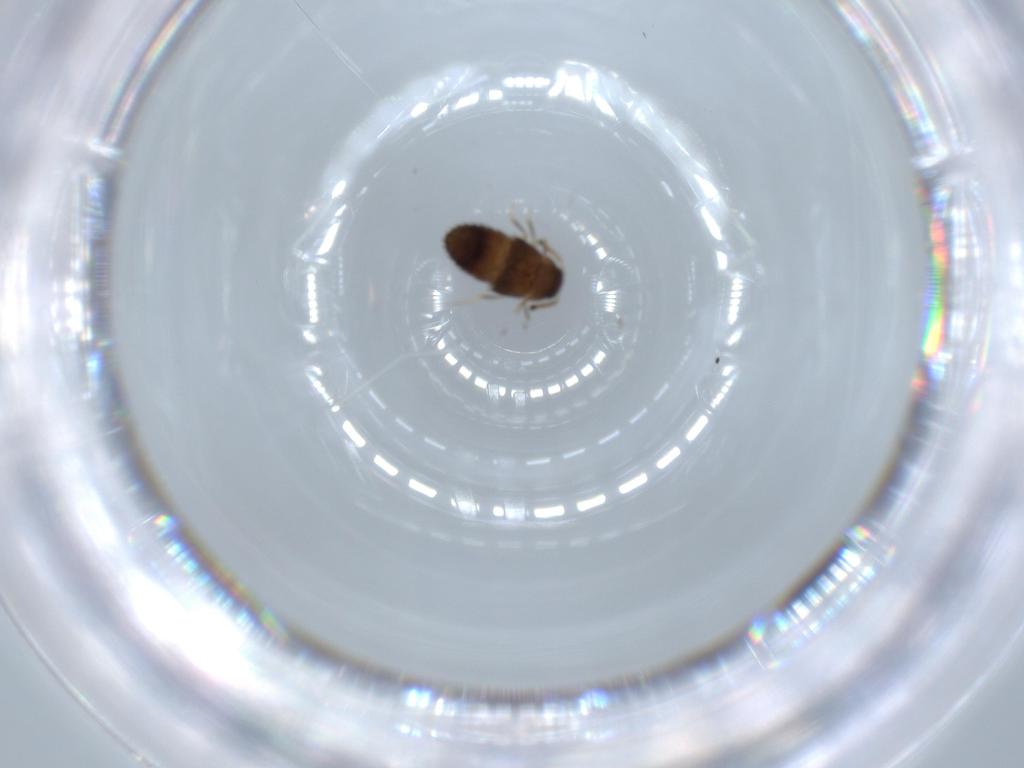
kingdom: Animalia
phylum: Arthropoda
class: Insecta
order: Coleoptera
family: Staphylinidae
